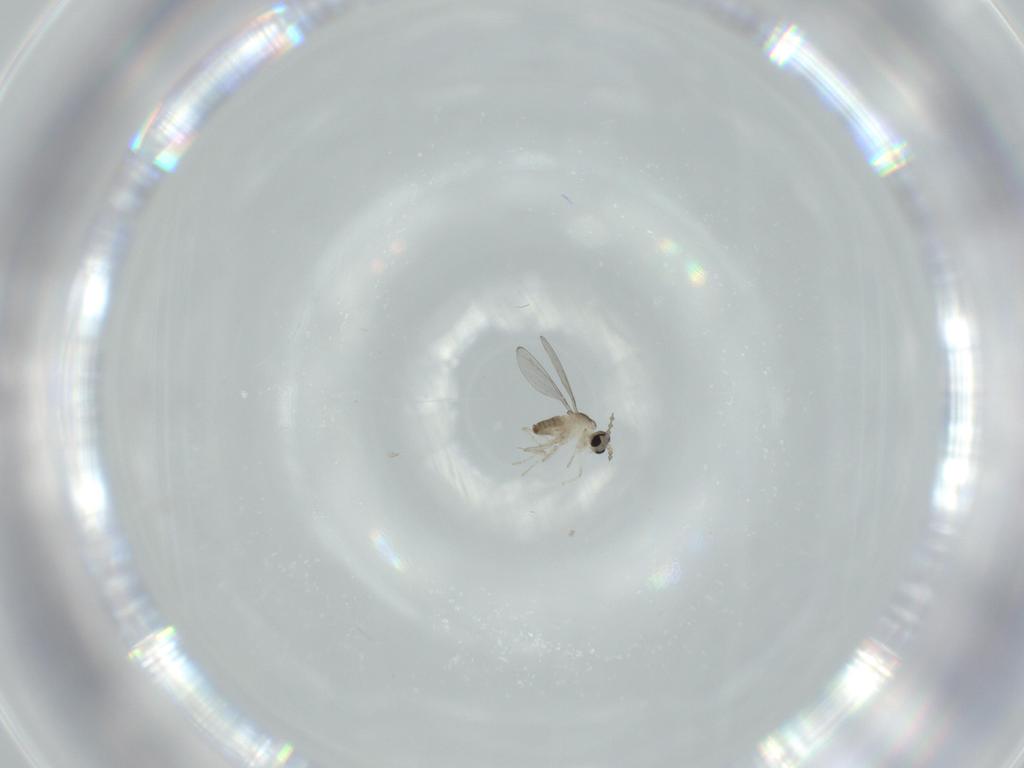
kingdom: Animalia
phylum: Arthropoda
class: Insecta
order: Diptera
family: Cecidomyiidae
